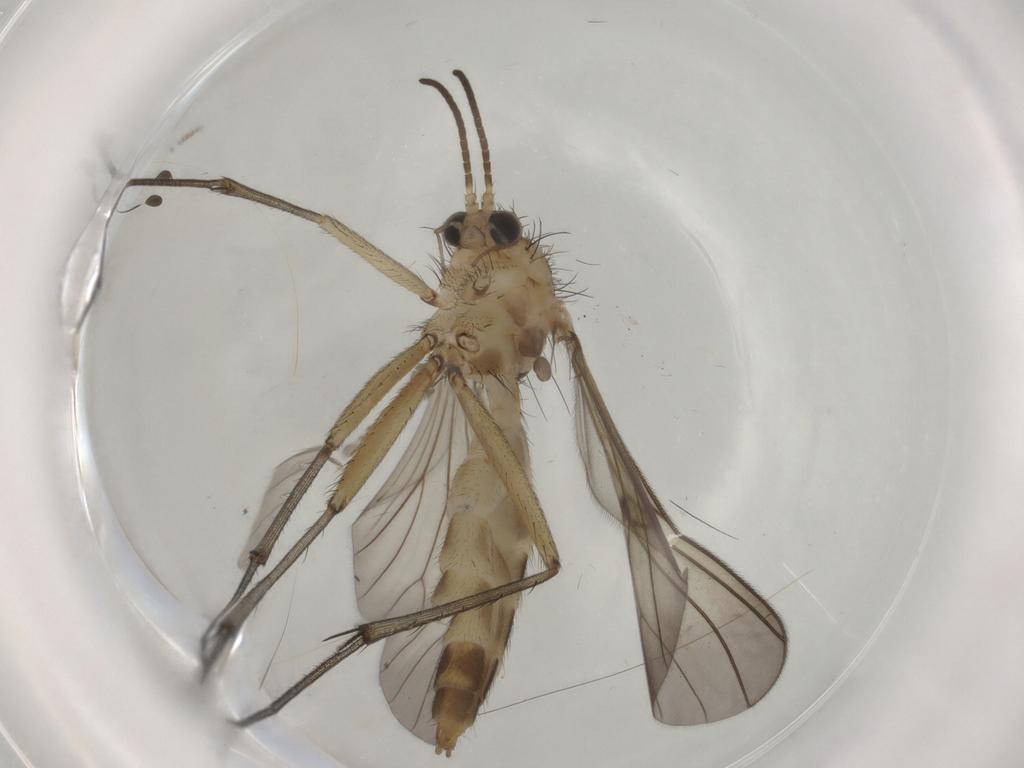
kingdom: Animalia
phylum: Arthropoda
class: Insecta
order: Diptera
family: Mycetophilidae
